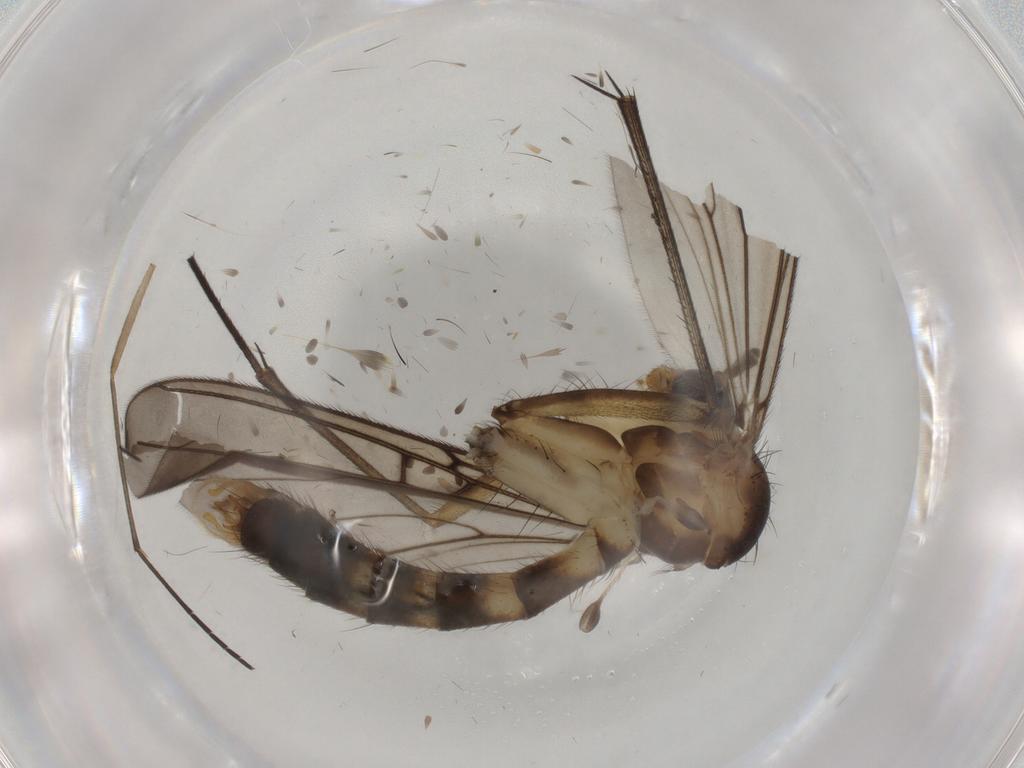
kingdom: Animalia
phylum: Arthropoda
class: Insecta
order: Diptera
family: Mycetophilidae
